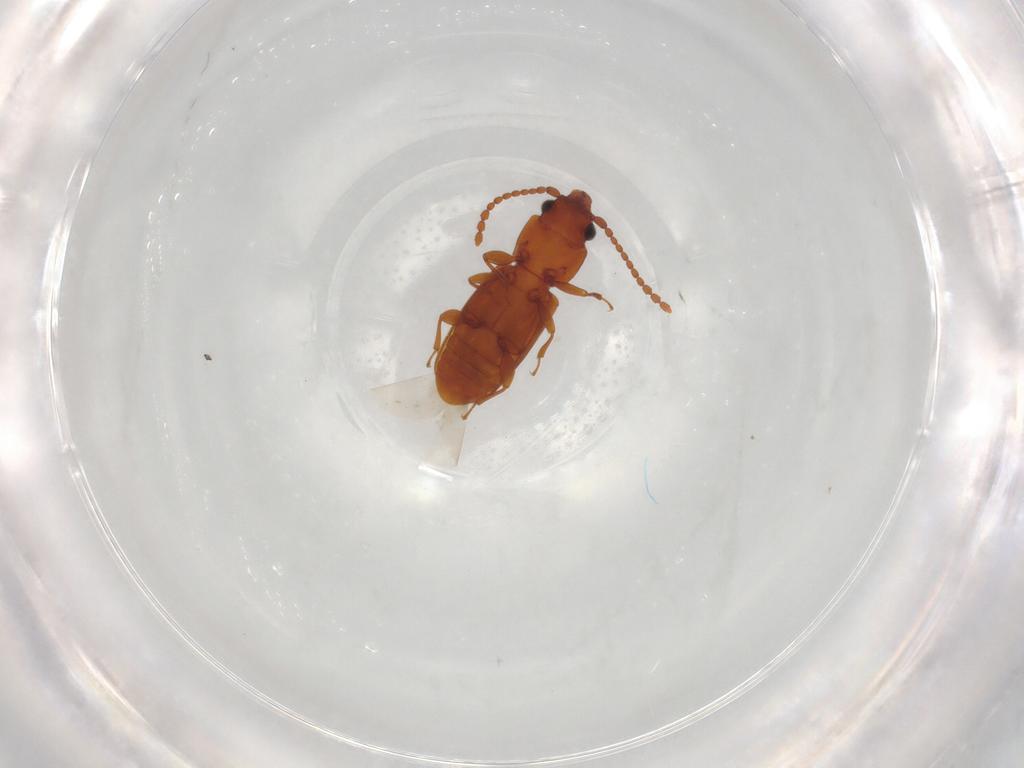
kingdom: Animalia
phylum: Arthropoda
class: Insecta
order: Coleoptera
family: Laemophloeidae
